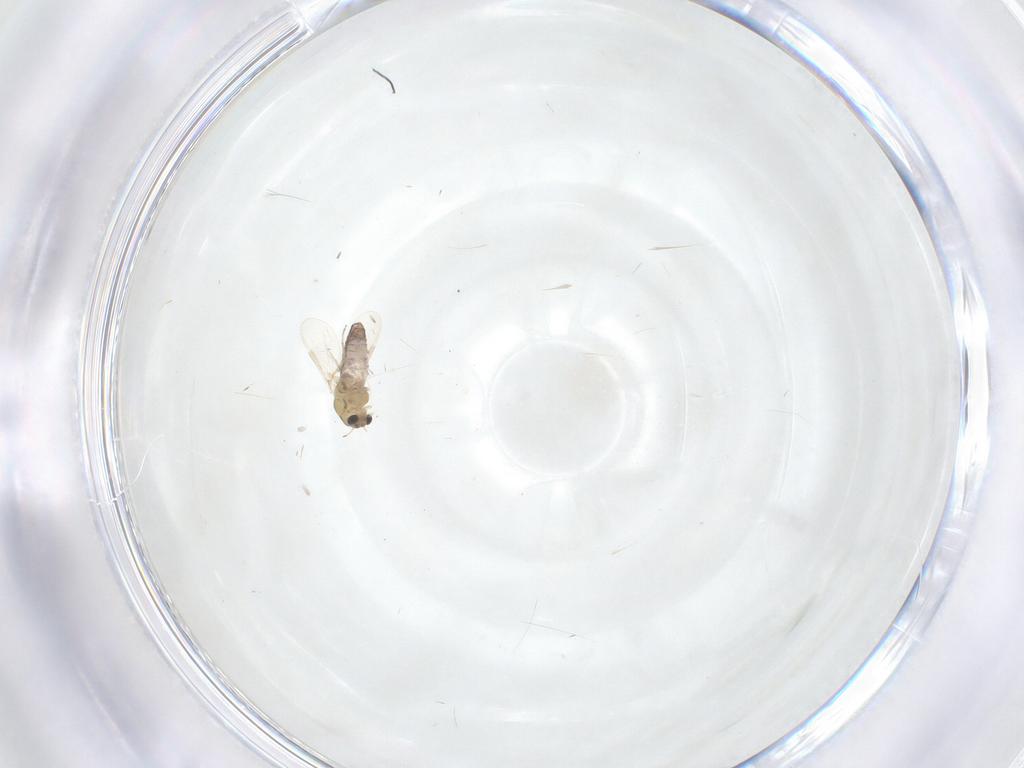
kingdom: Animalia
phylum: Arthropoda
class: Insecta
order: Diptera
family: Chironomidae
